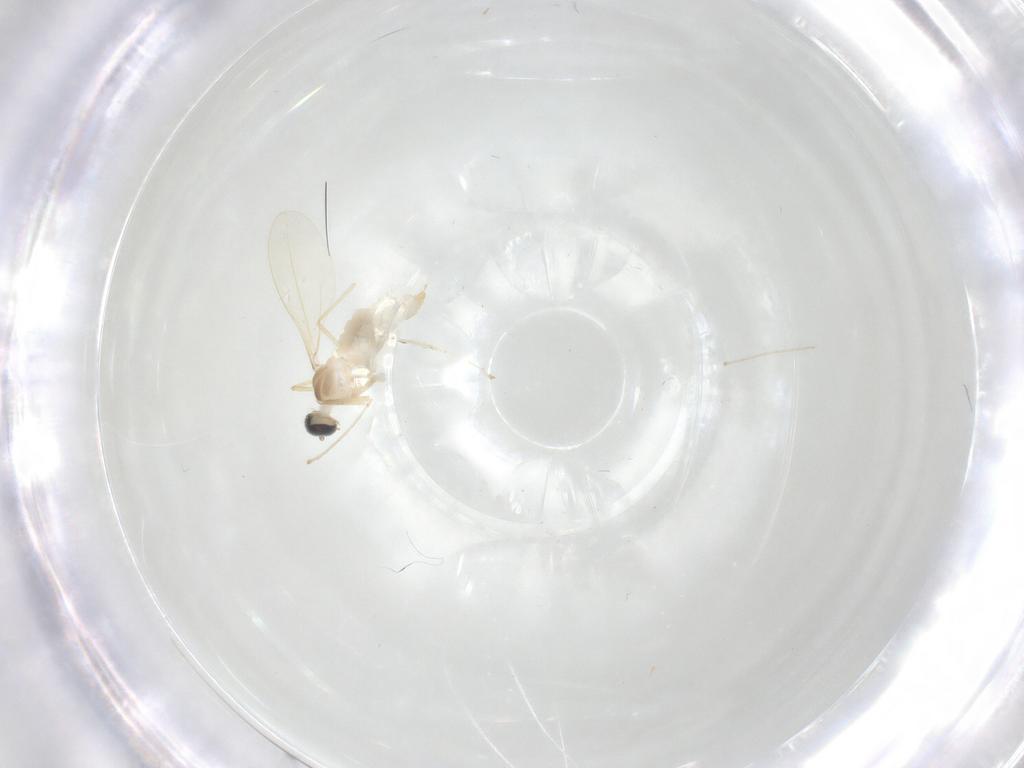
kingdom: Animalia
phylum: Arthropoda
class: Insecta
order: Diptera
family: Cecidomyiidae
